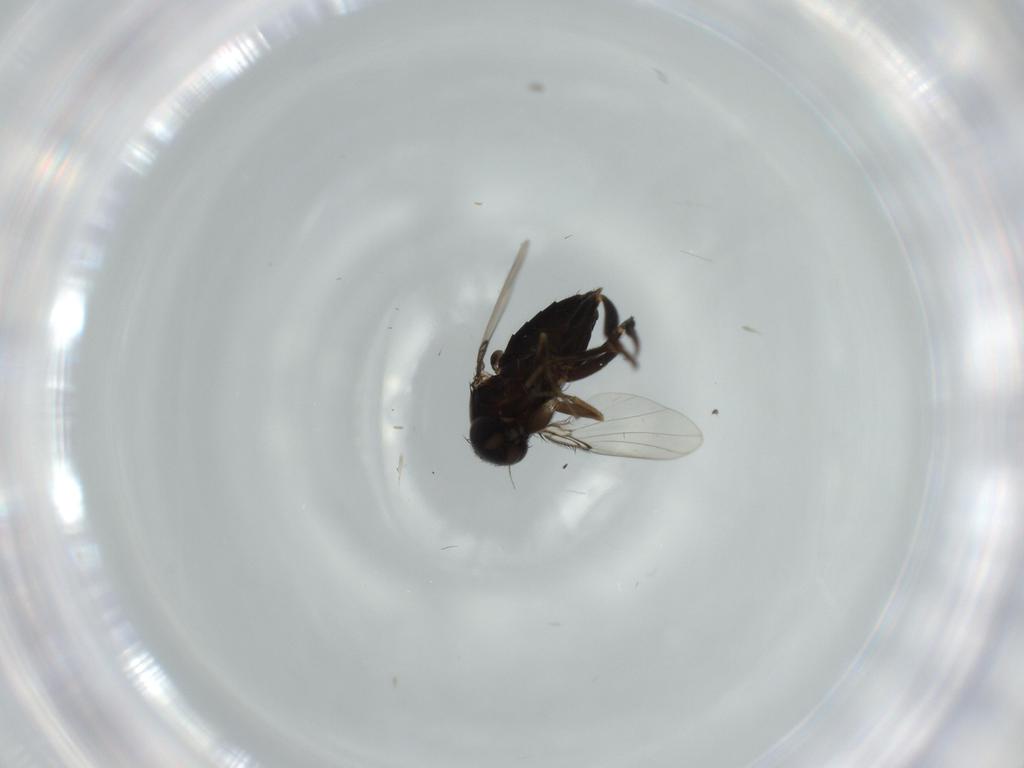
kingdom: Animalia
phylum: Arthropoda
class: Insecta
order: Diptera
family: Phoridae
